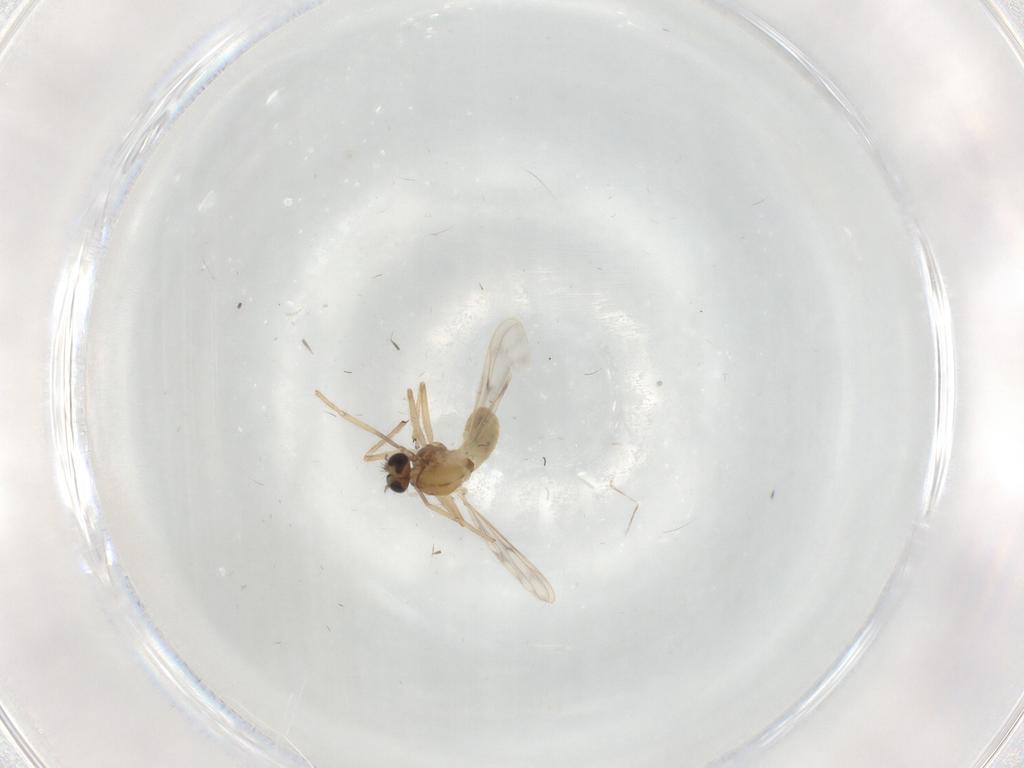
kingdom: Animalia
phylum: Arthropoda
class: Insecta
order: Diptera
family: Chironomidae
